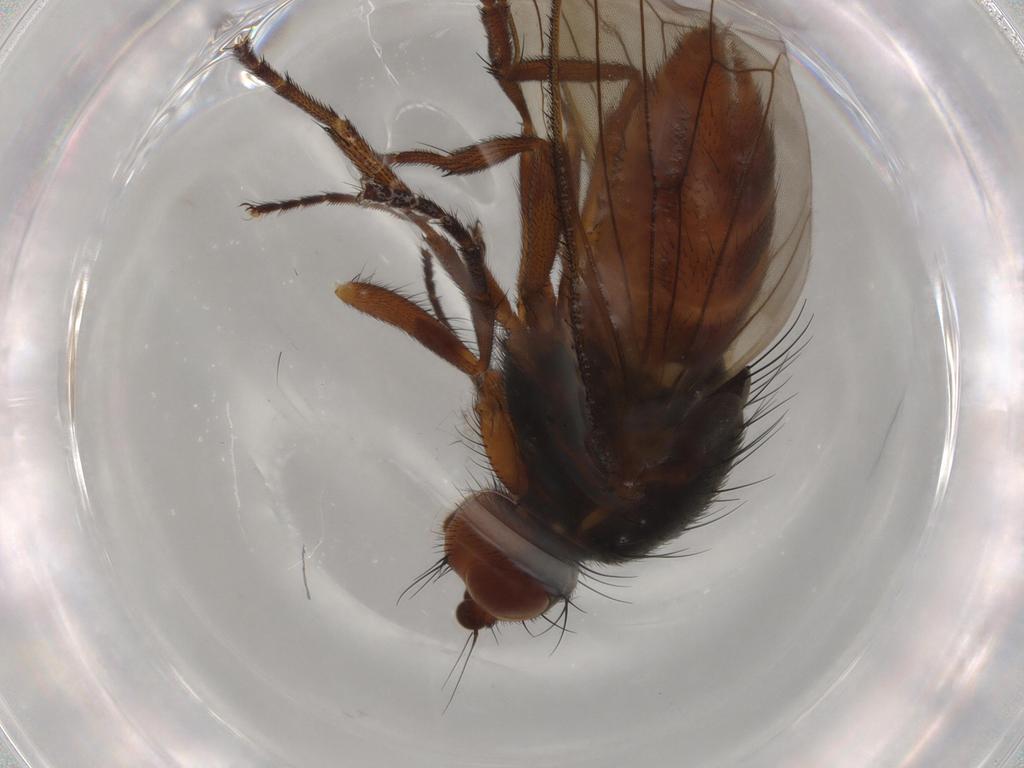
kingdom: Animalia
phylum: Arthropoda
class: Insecta
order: Diptera
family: Heleomyzidae
